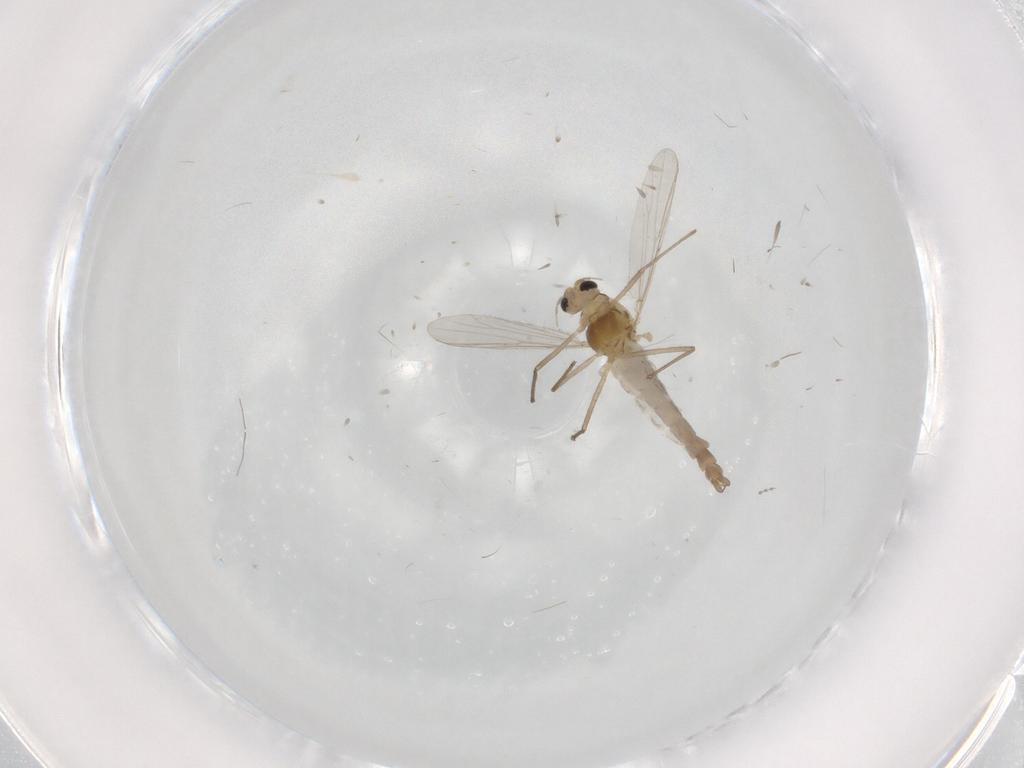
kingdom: Animalia
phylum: Arthropoda
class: Insecta
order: Diptera
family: Chironomidae
